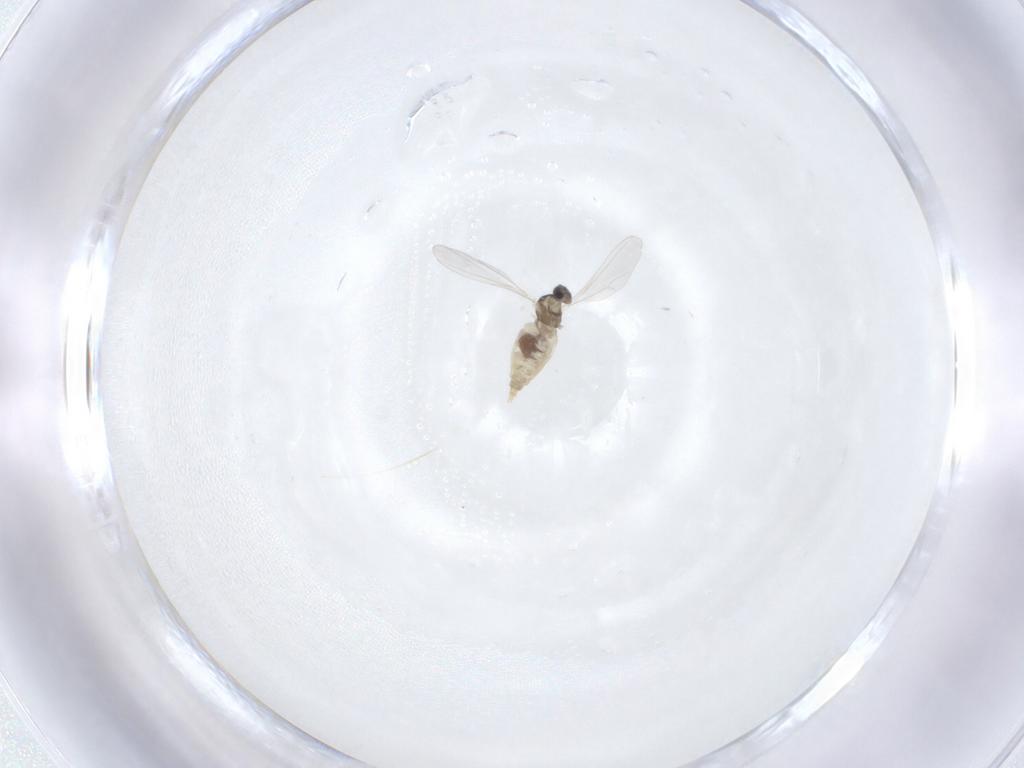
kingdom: Animalia
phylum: Arthropoda
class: Insecta
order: Diptera
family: Cecidomyiidae
